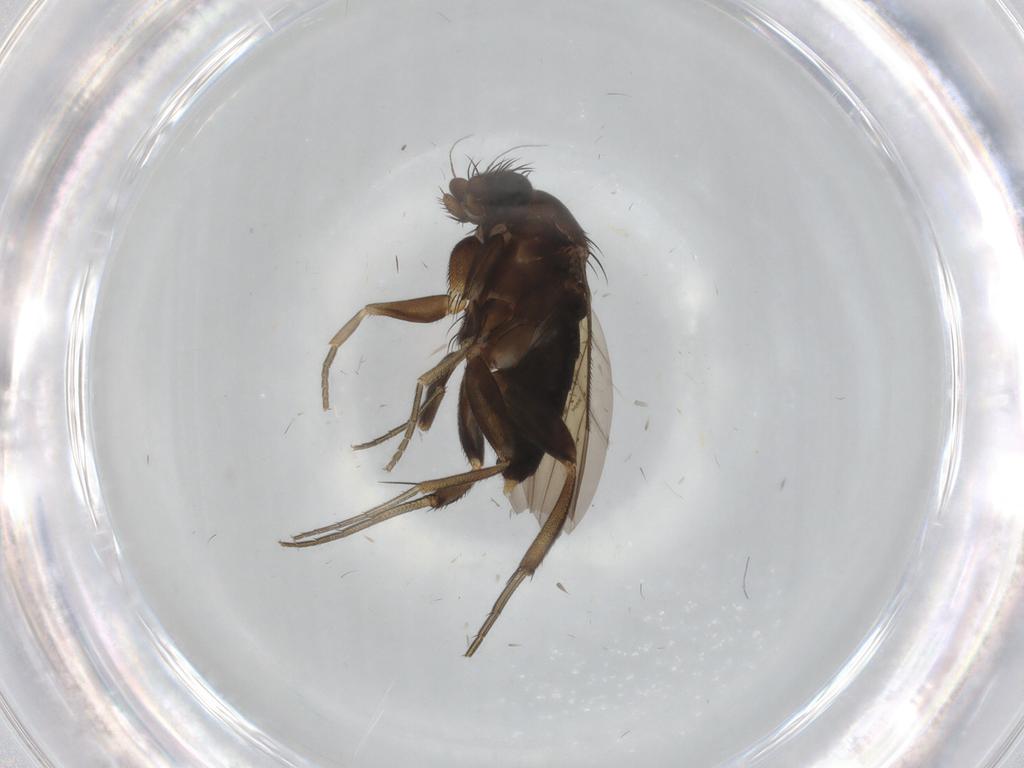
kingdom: Animalia
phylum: Arthropoda
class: Insecta
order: Diptera
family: Phoridae
